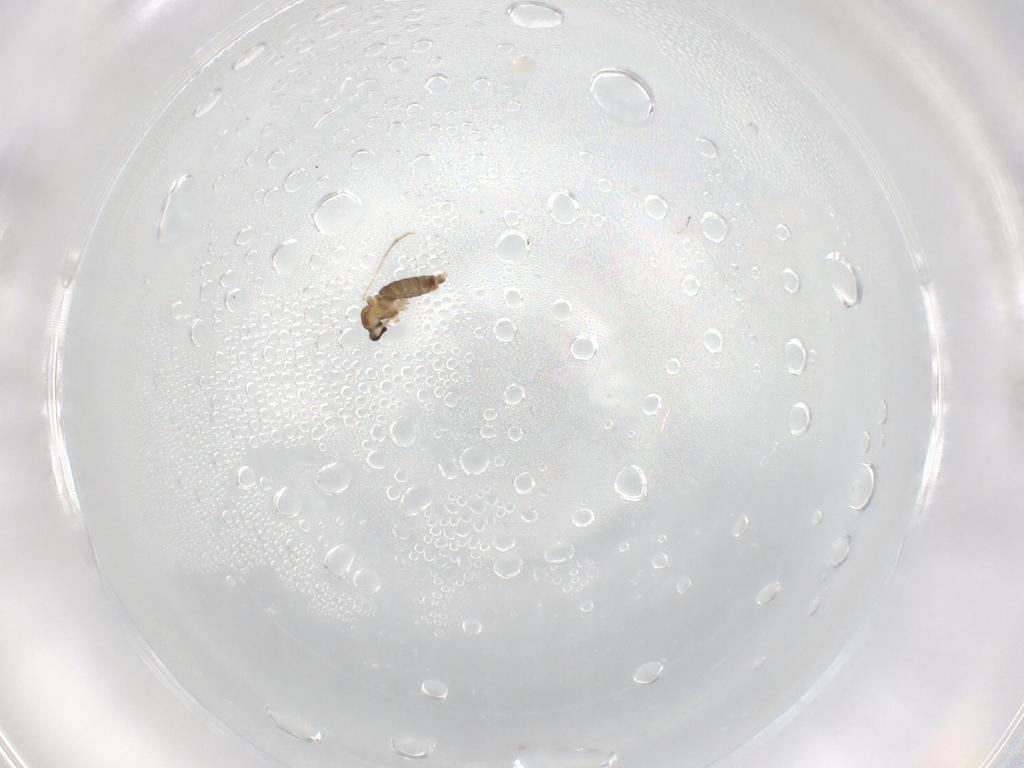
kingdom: Animalia
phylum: Arthropoda
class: Insecta
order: Diptera
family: Cecidomyiidae
